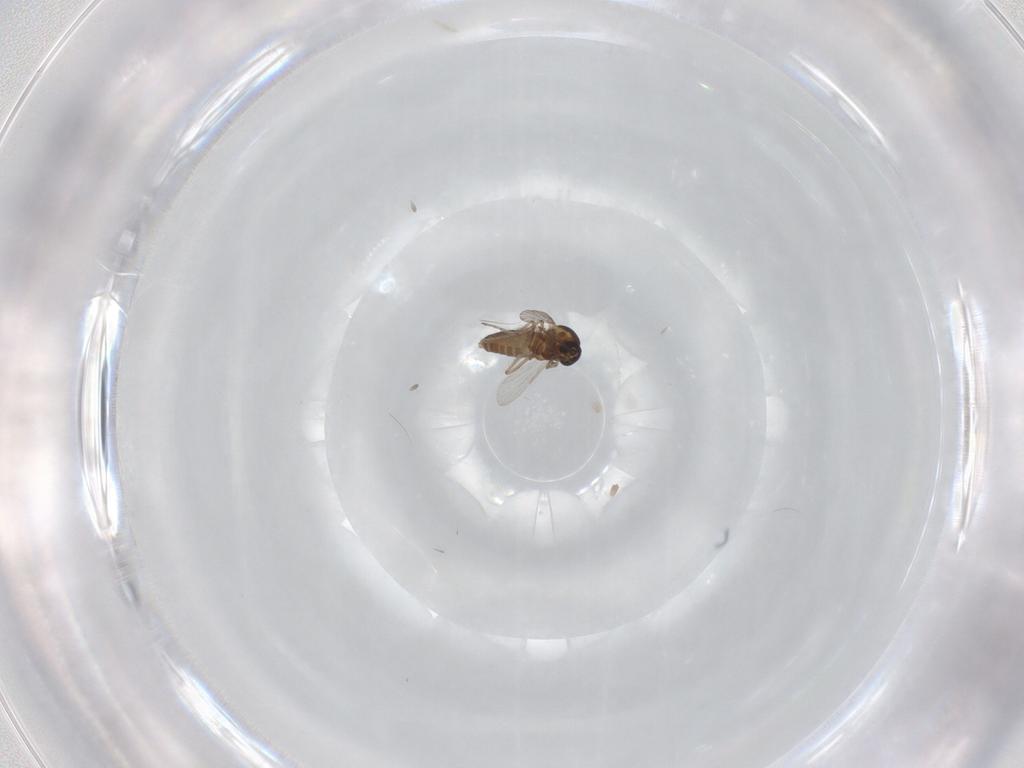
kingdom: Animalia
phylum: Arthropoda
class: Insecta
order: Diptera
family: Ceratopogonidae
